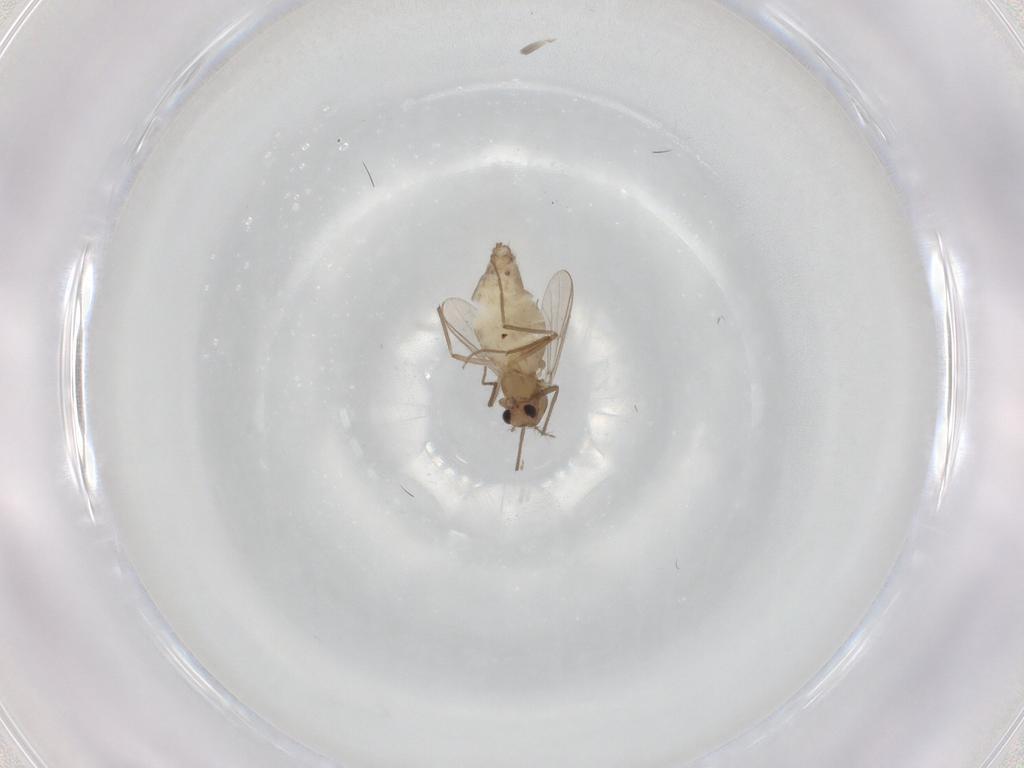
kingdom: Animalia
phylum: Arthropoda
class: Insecta
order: Diptera
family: Chironomidae
